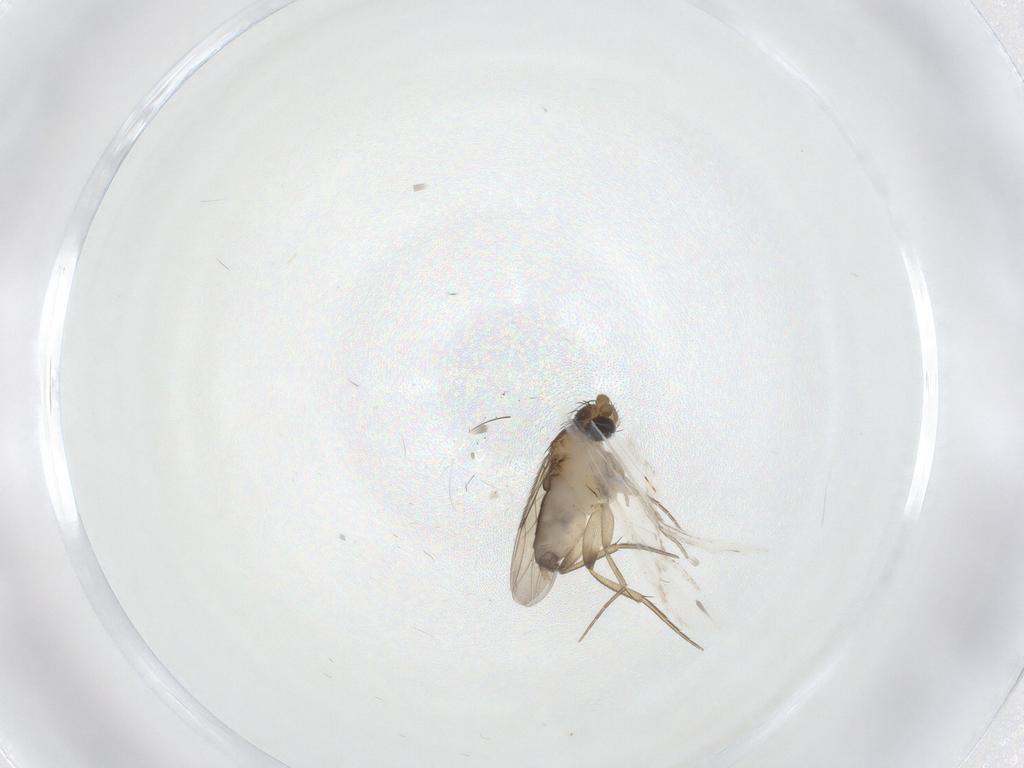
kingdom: Animalia
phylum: Arthropoda
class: Insecta
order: Diptera
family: Phoridae
